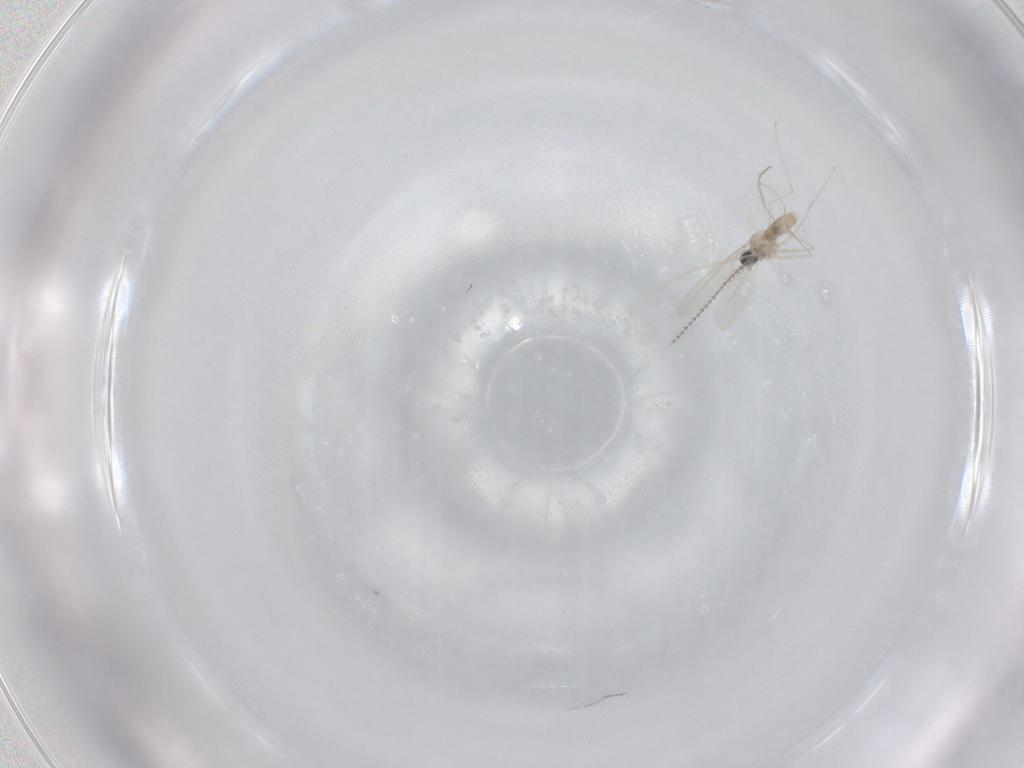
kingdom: Animalia
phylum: Arthropoda
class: Insecta
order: Diptera
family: Chironomidae
